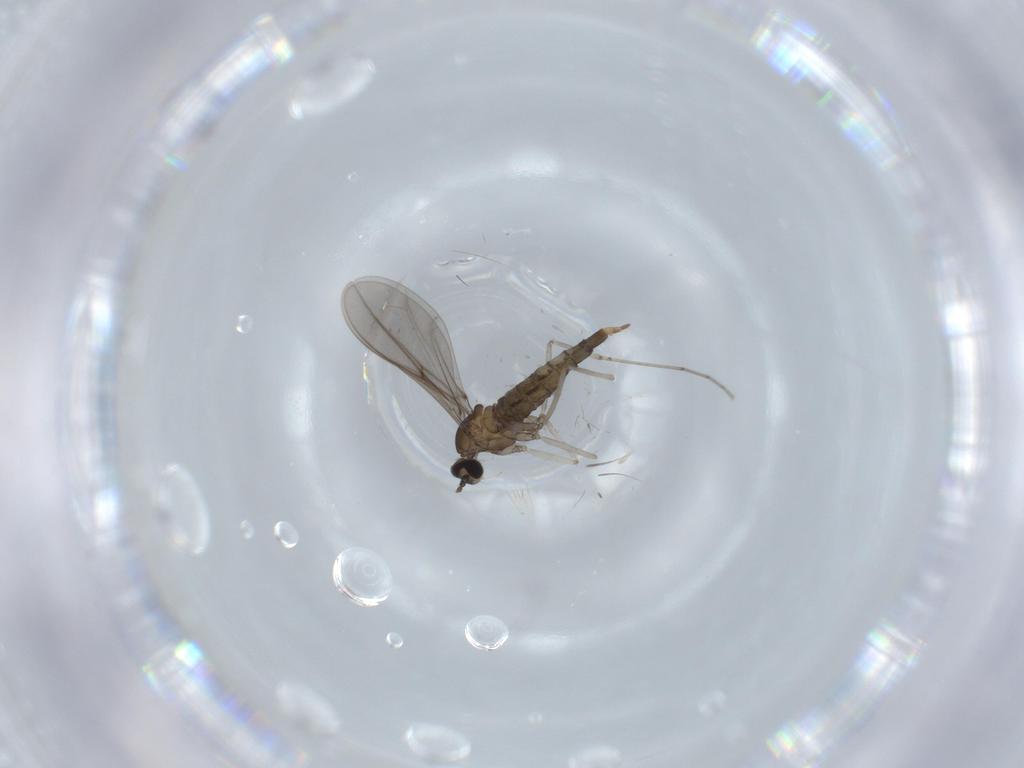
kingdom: Animalia
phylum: Arthropoda
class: Insecta
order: Diptera
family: Cecidomyiidae
